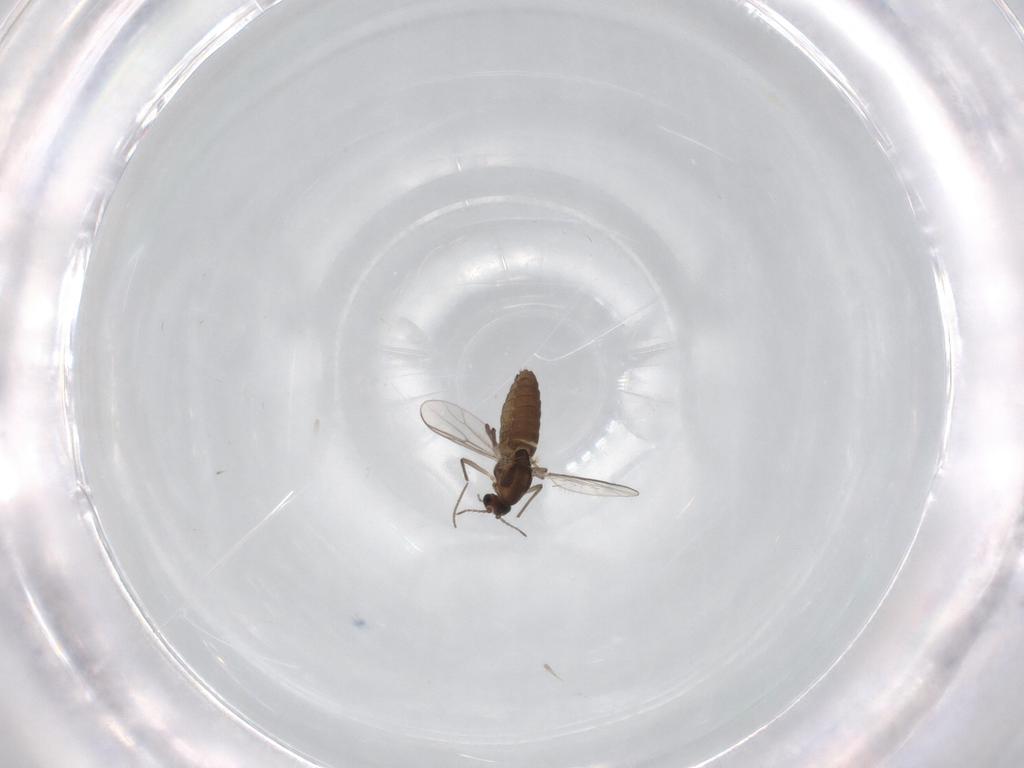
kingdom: Animalia
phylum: Arthropoda
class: Insecta
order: Diptera
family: Chironomidae
